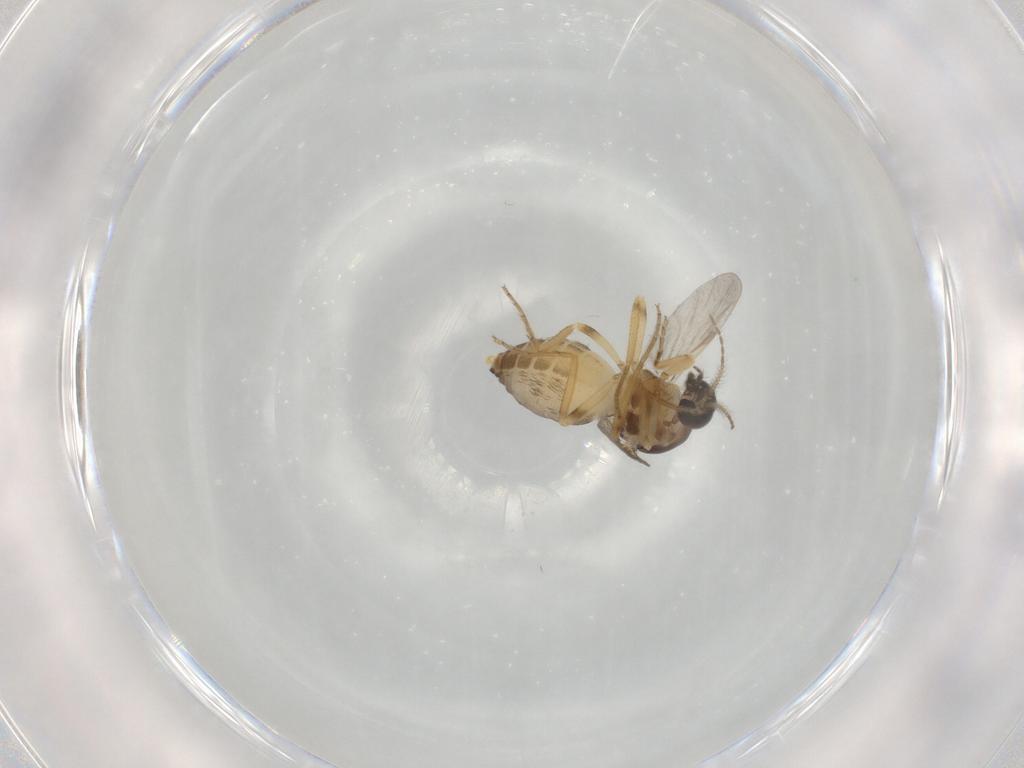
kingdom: Animalia
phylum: Arthropoda
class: Insecta
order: Diptera
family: Ceratopogonidae
